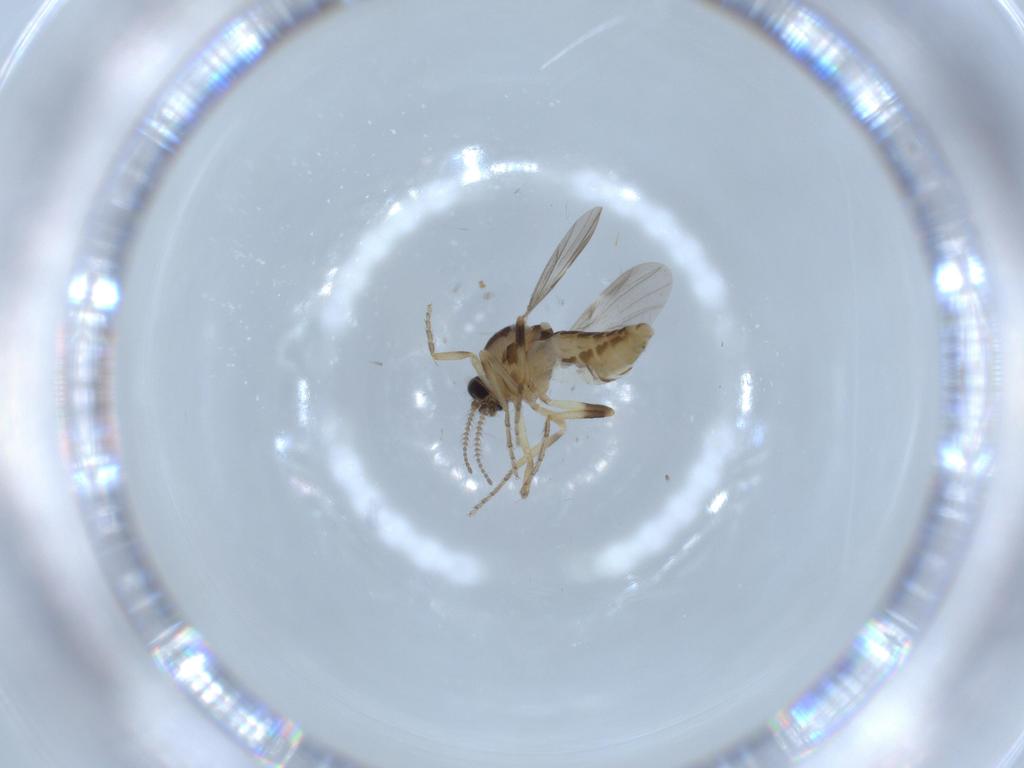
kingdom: Animalia
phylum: Arthropoda
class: Insecta
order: Diptera
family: Ceratopogonidae
